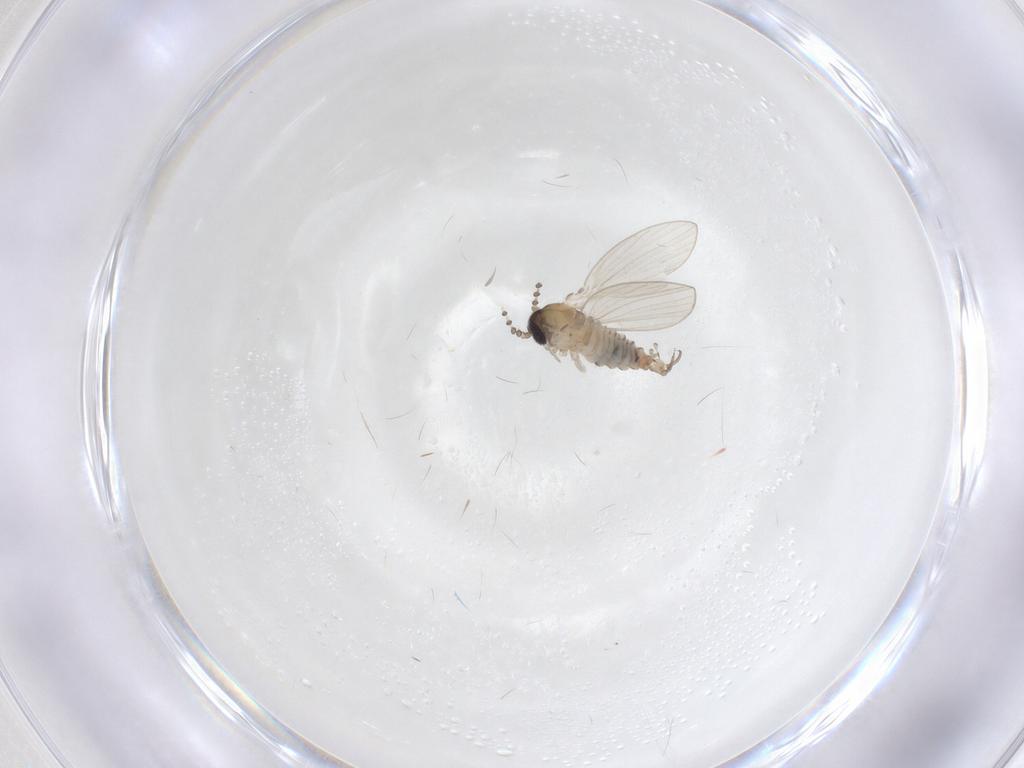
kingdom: Animalia
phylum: Arthropoda
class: Insecta
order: Diptera
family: Psychodidae
